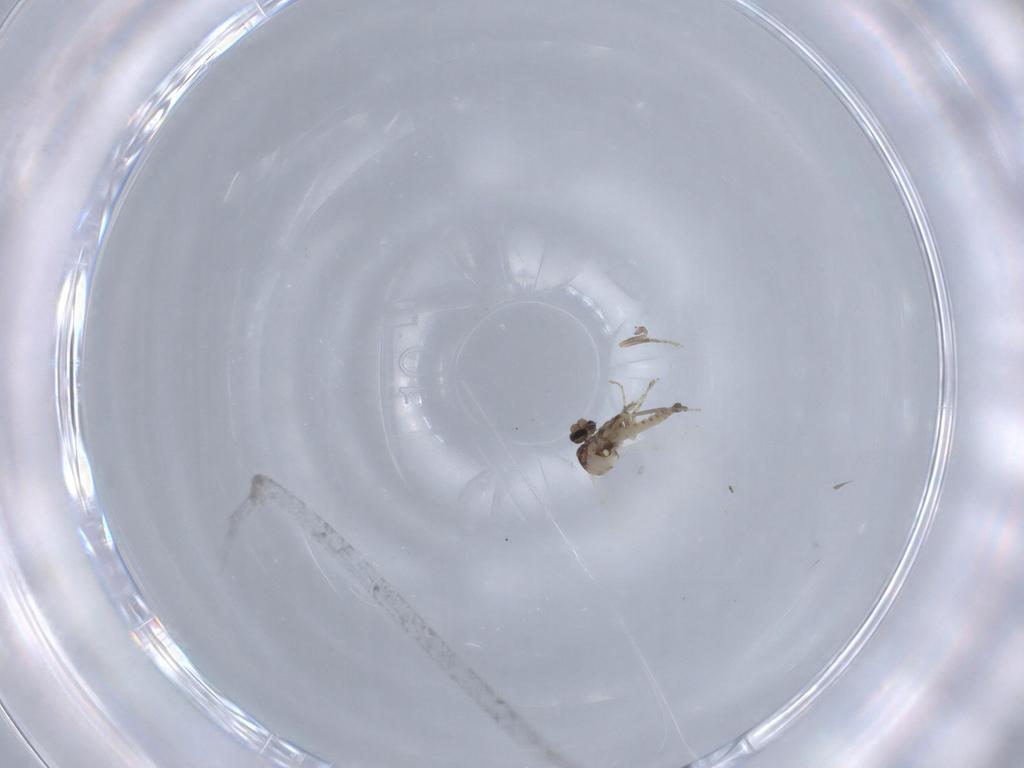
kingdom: Animalia
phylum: Arthropoda
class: Insecta
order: Diptera
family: Ceratopogonidae
